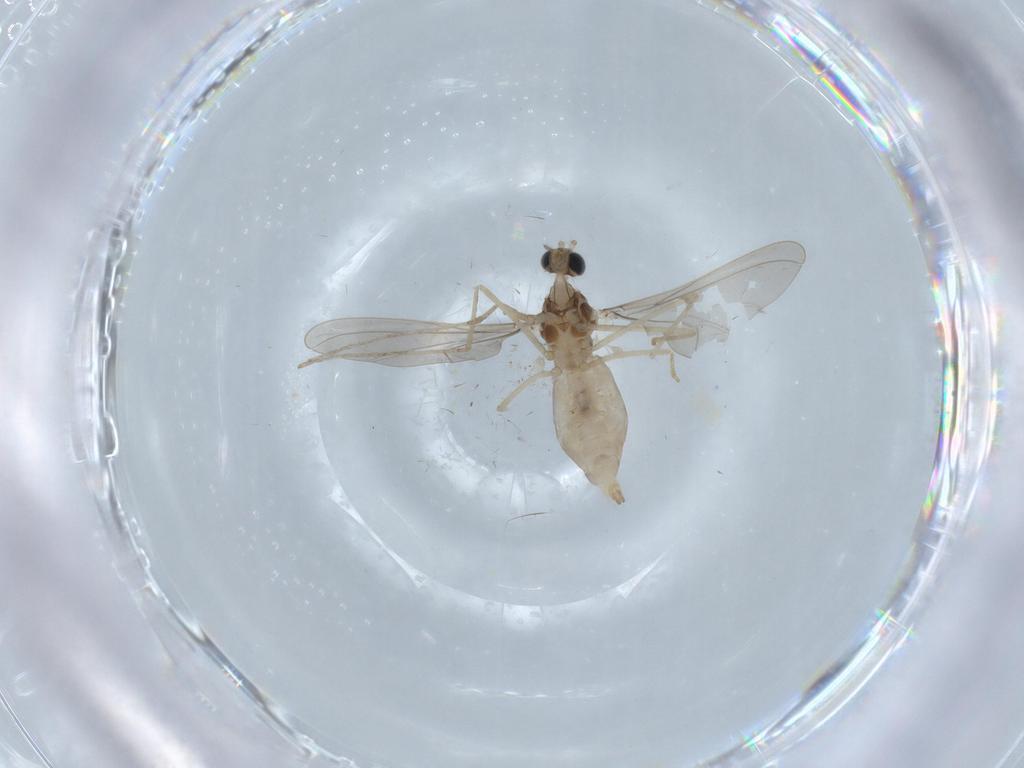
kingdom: Animalia
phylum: Arthropoda
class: Insecta
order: Diptera
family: Cecidomyiidae
